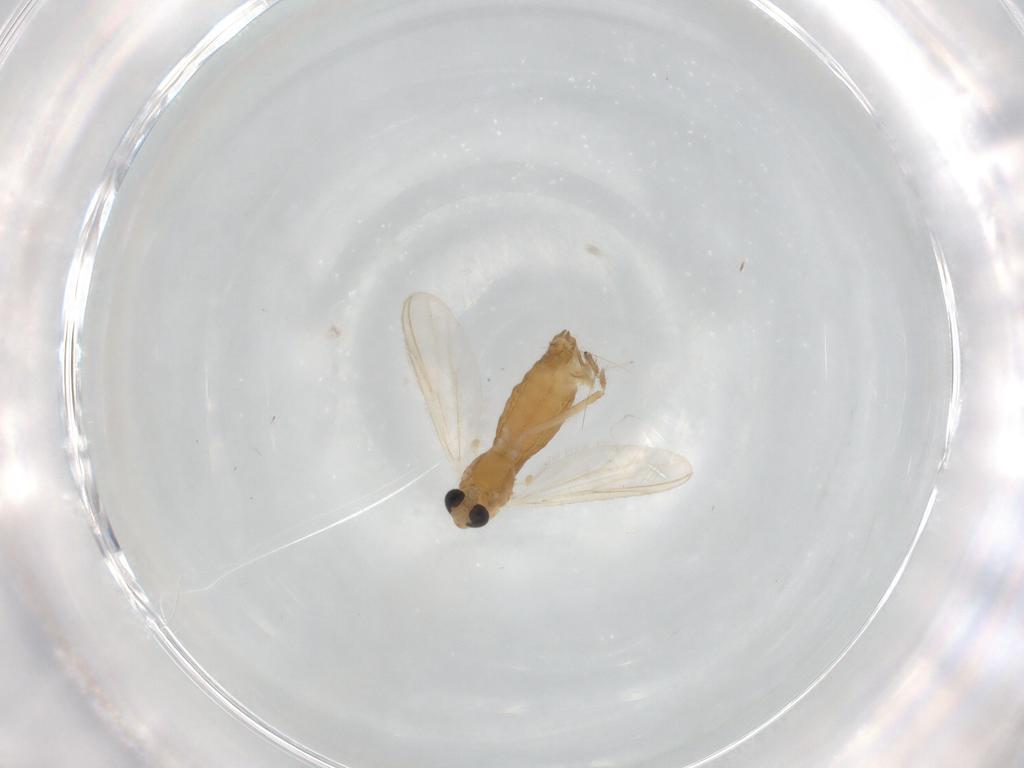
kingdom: Animalia
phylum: Arthropoda
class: Insecta
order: Diptera
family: Chironomidae
